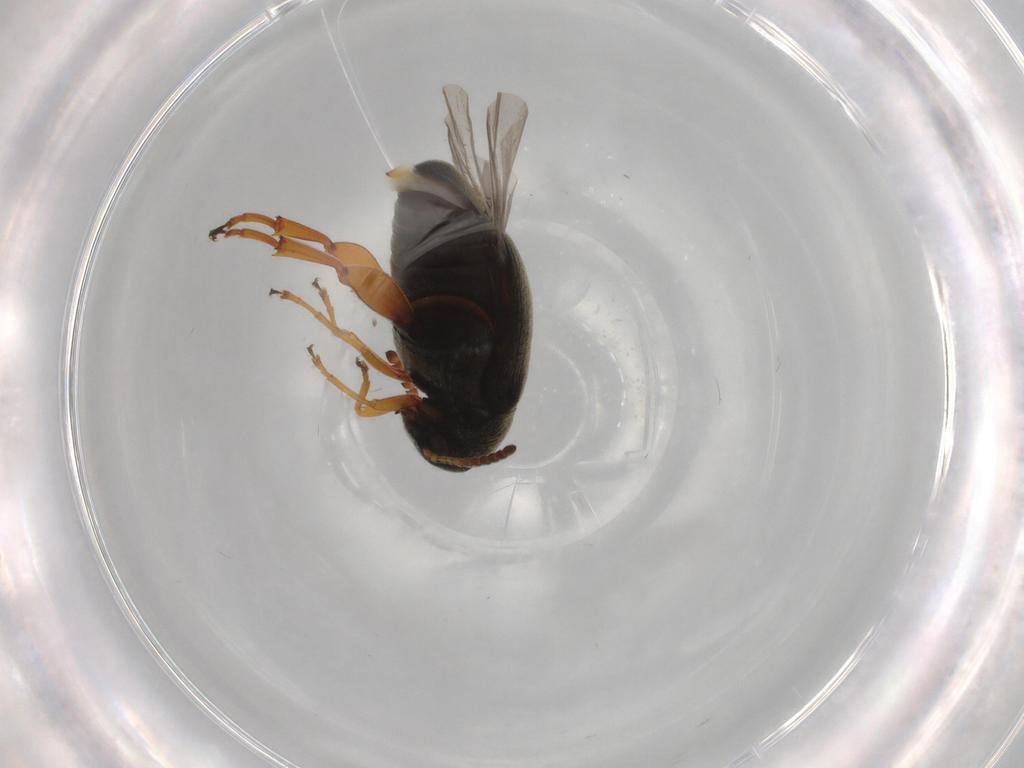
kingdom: Animalia
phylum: Arthropoda
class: Insecta
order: Coleoptera
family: Chrysomelidae
